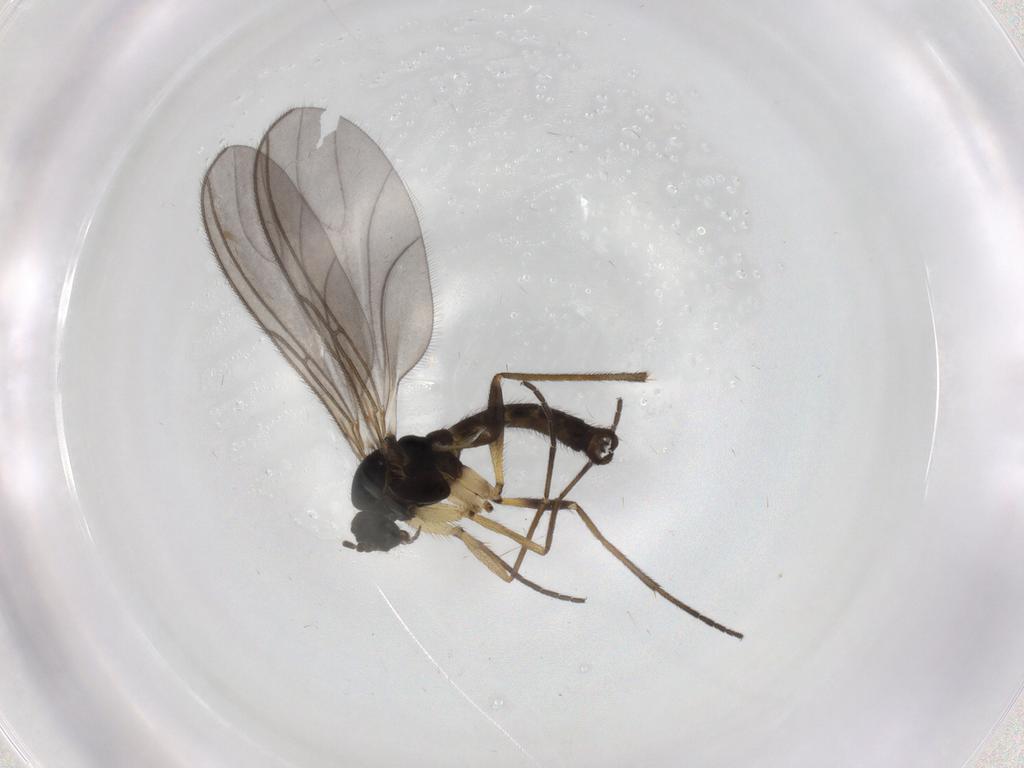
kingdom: Animalia
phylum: Arthropoda
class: Insecta
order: Diptera
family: Sciaridae
